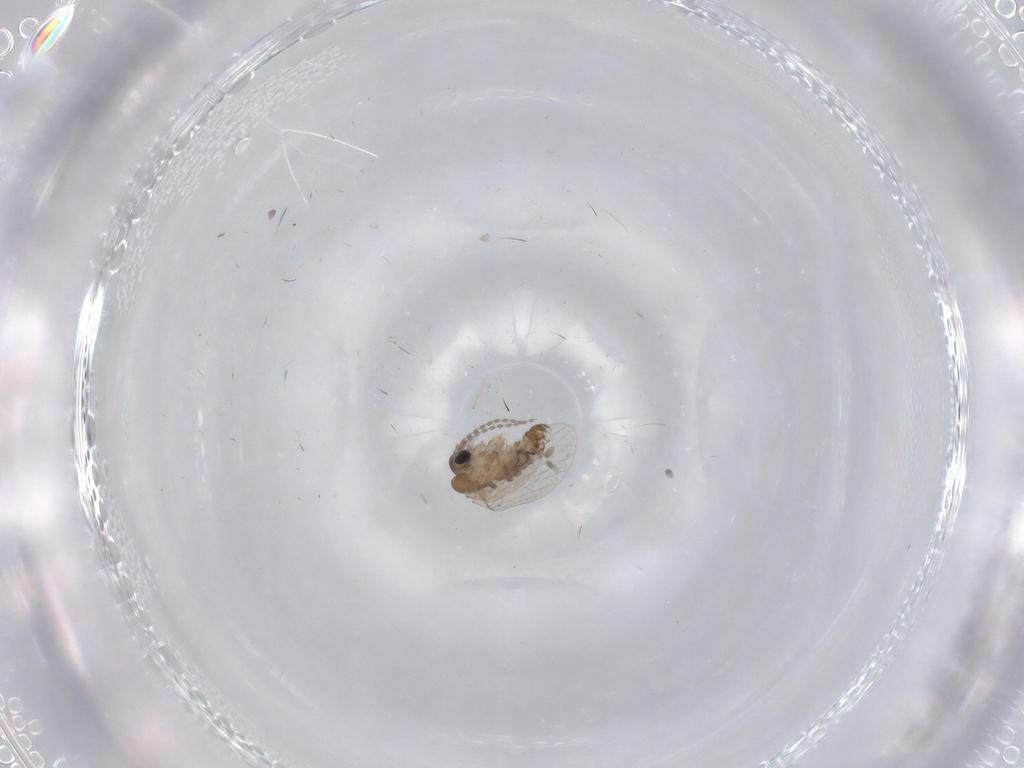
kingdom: Animalia
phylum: Arthropoda
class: Insecta
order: Diptera
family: Psychodidae
